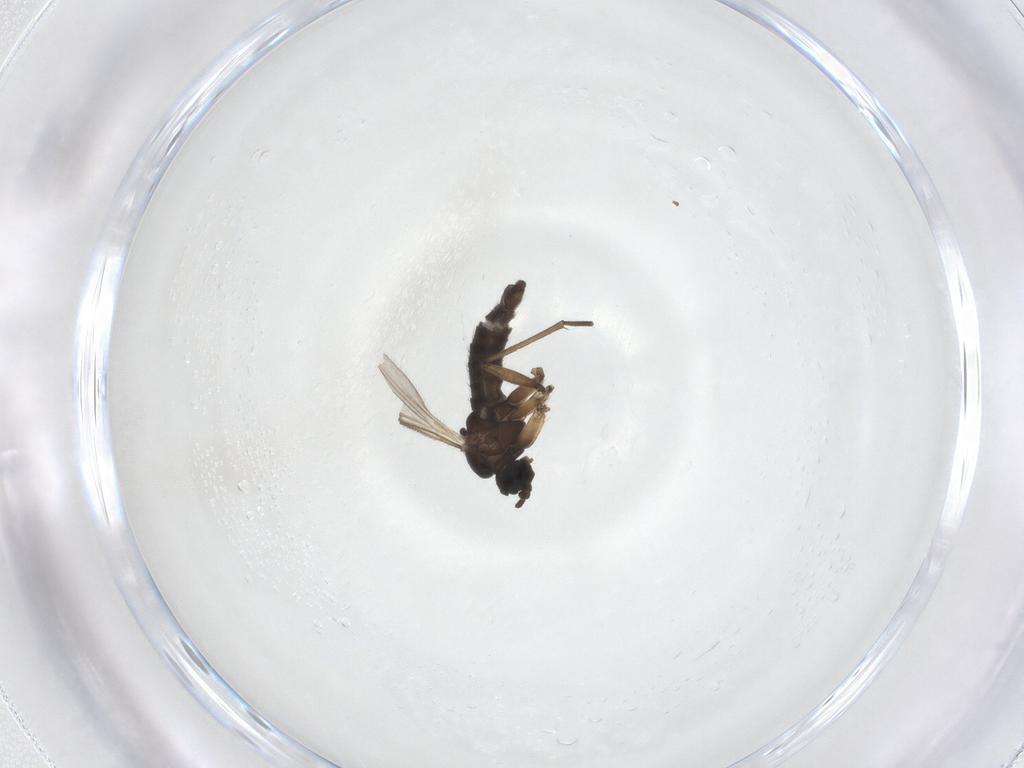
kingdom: Animalia
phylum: Arthropoda
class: Insecta
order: Diptera
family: Sciaridae
